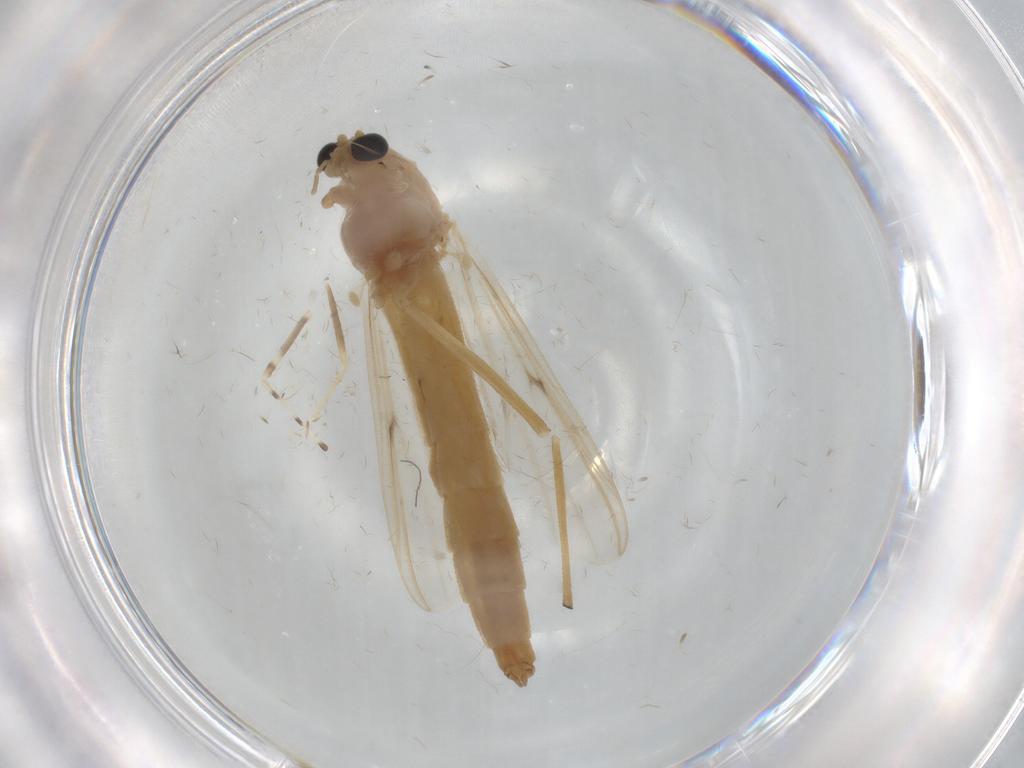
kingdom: Animalia
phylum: Arthropoda
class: Insecta
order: Diptera
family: Chironomidae
